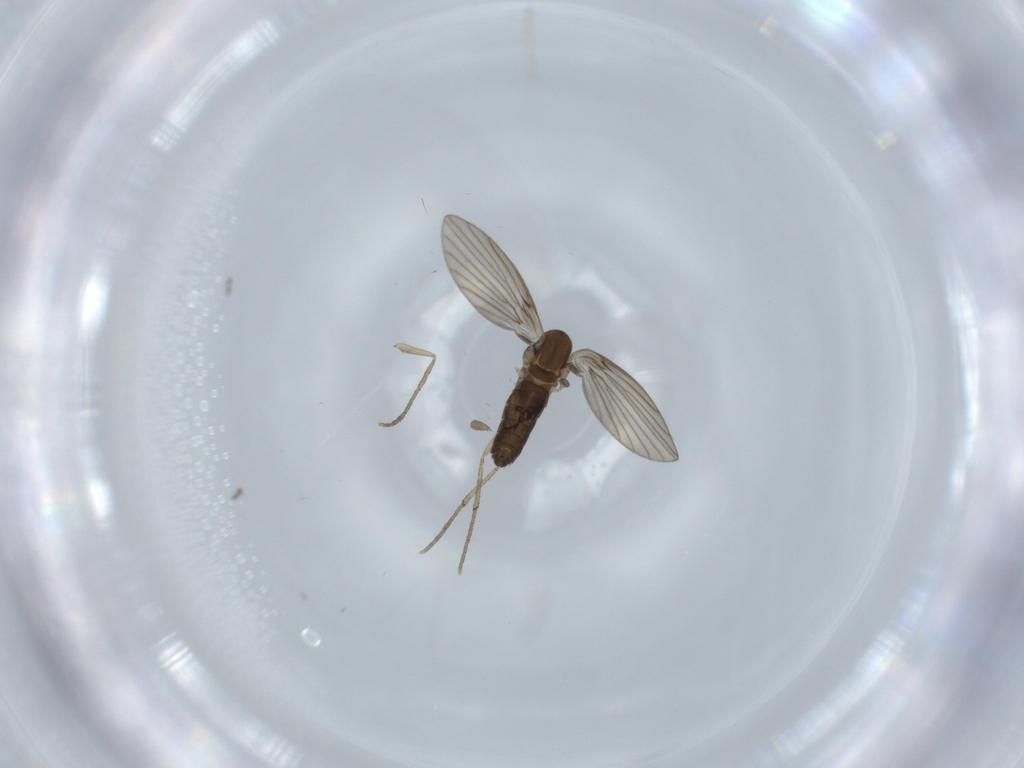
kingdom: Animalia
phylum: Arthropoda
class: Insecta
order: Diptera
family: Psychodidae
